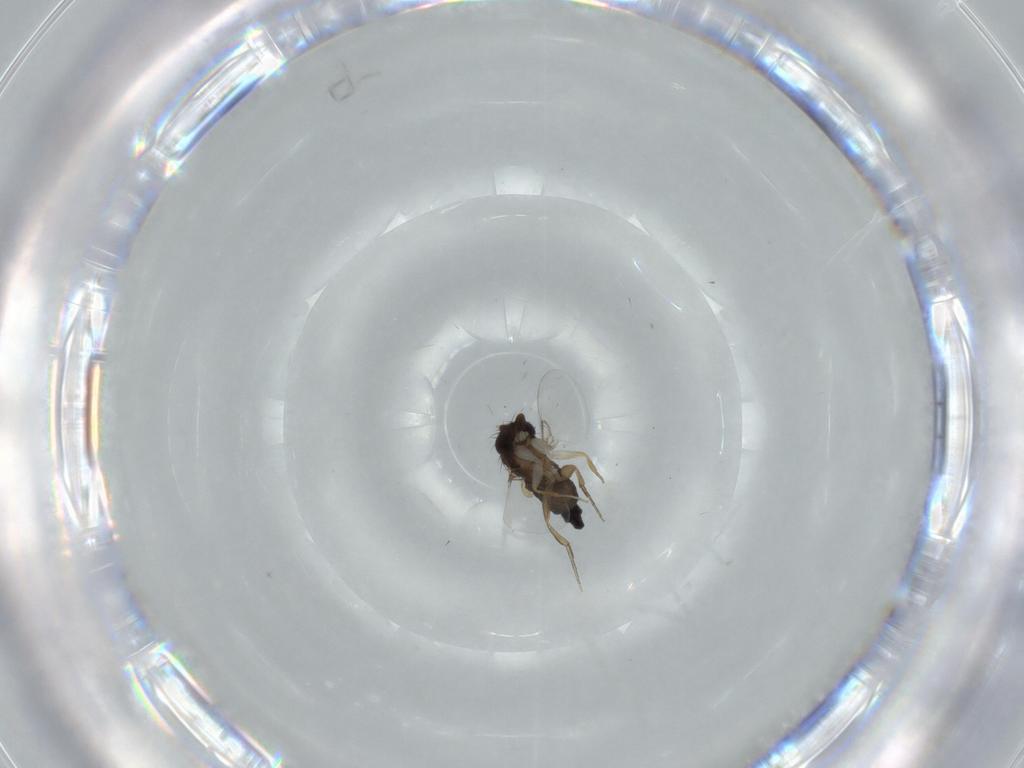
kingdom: Animalia
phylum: Arthropoda
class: Insecta
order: Diptera
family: Phoridae
